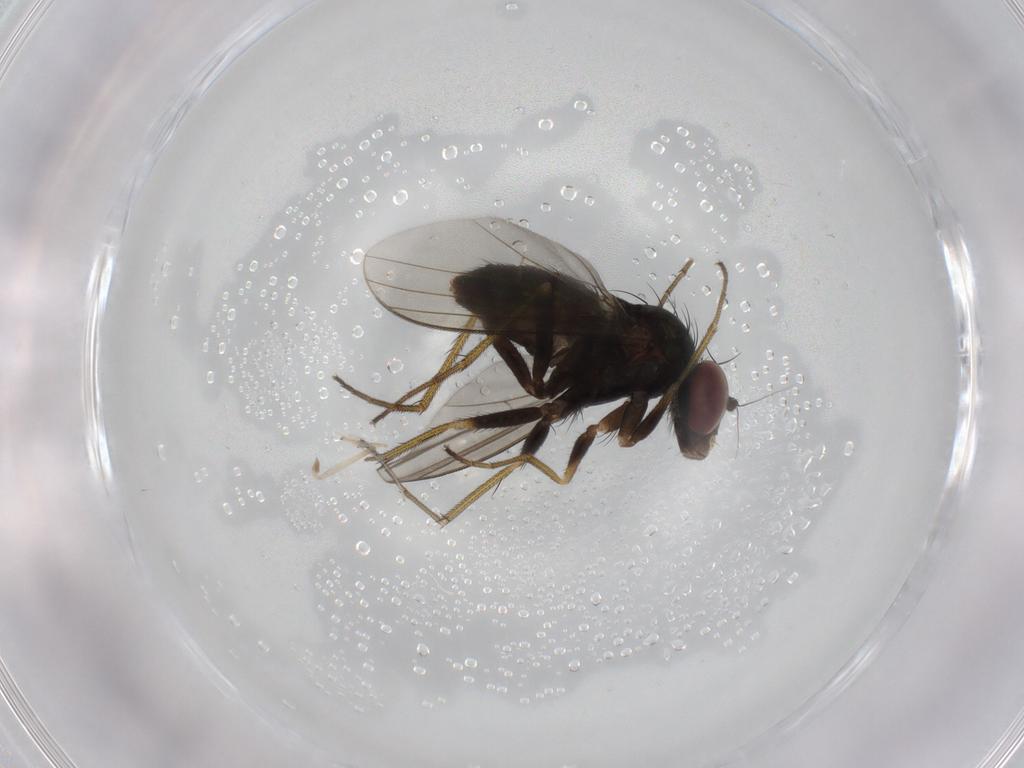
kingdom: Animalia
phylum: Arthropoda
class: Insecta
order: Diptera
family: Dolichopodidae
